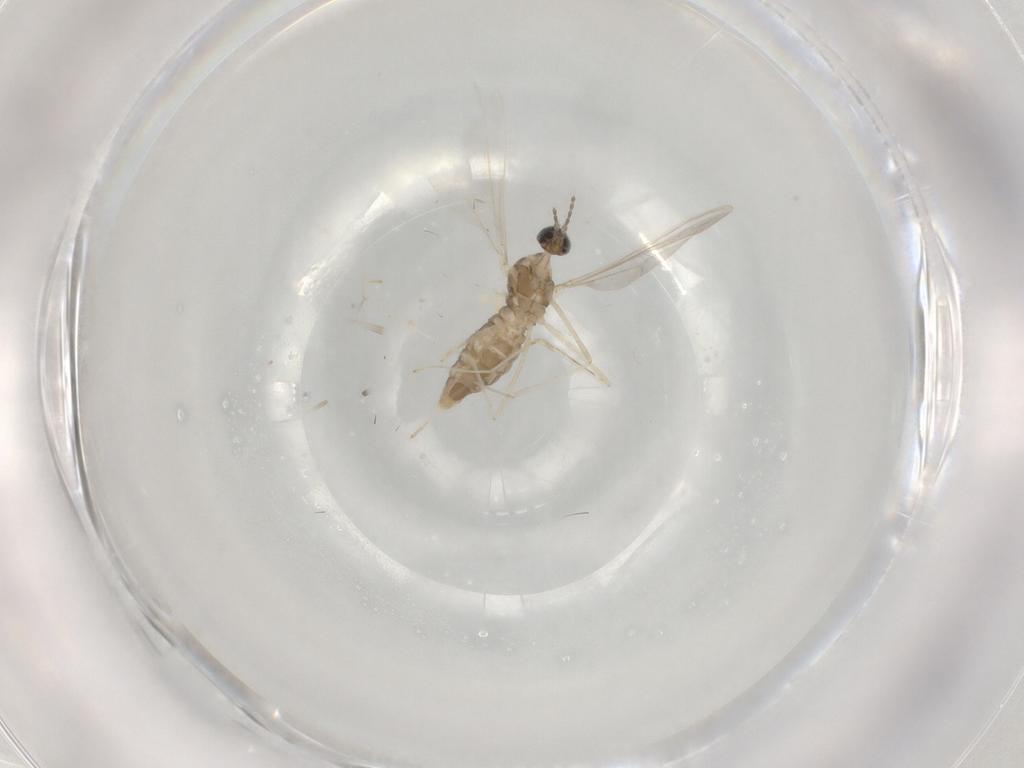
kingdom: Animalia
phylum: Arthropoda
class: Insecta
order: Diptera
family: Cecidomyiidae
